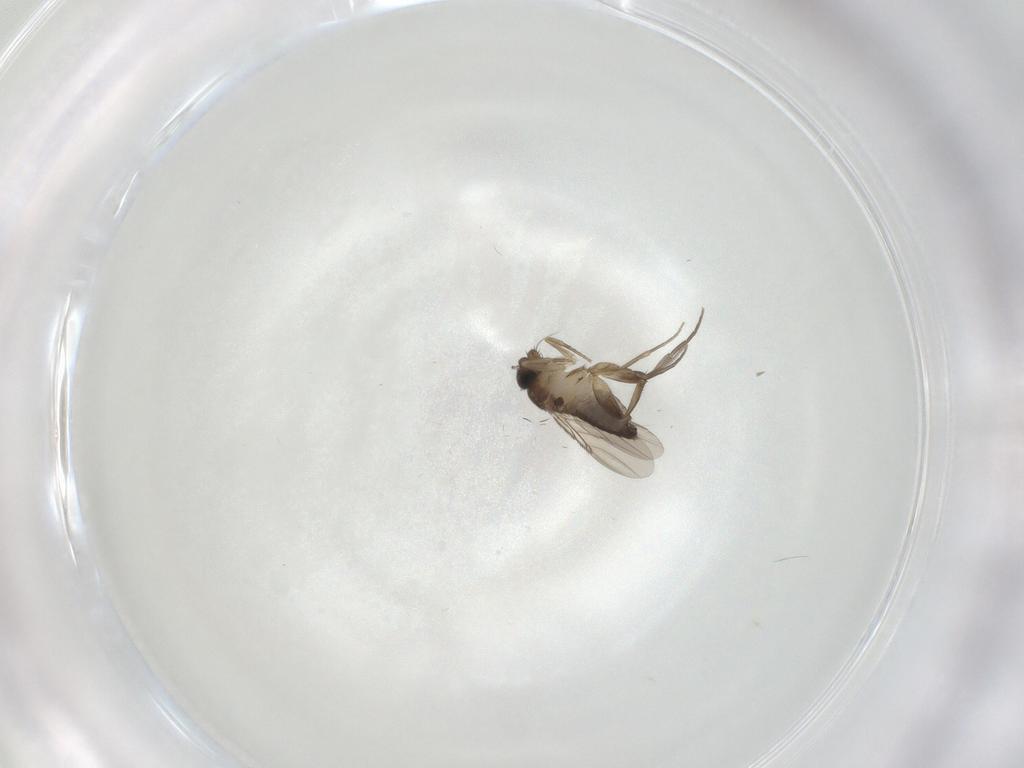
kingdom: Animalia
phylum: Arthropoda
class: Insecta
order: Diptera
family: Phoridae
